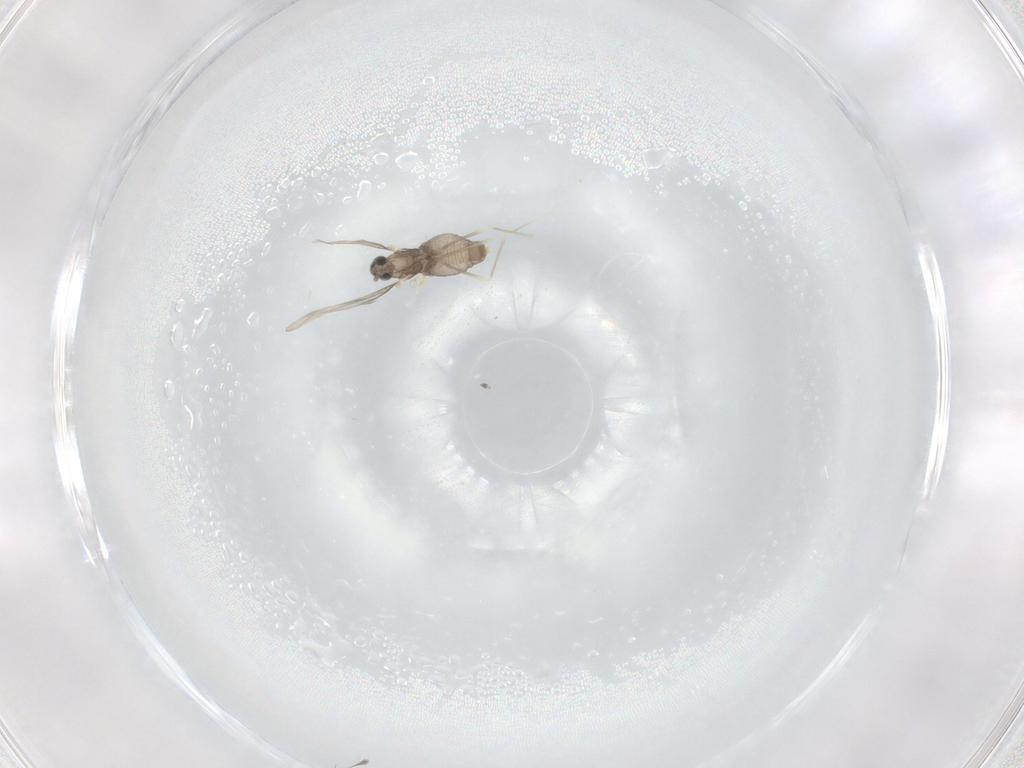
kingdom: Animalia
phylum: Arthropoda
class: Insecta
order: Diptera
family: Cecidomyiidae
